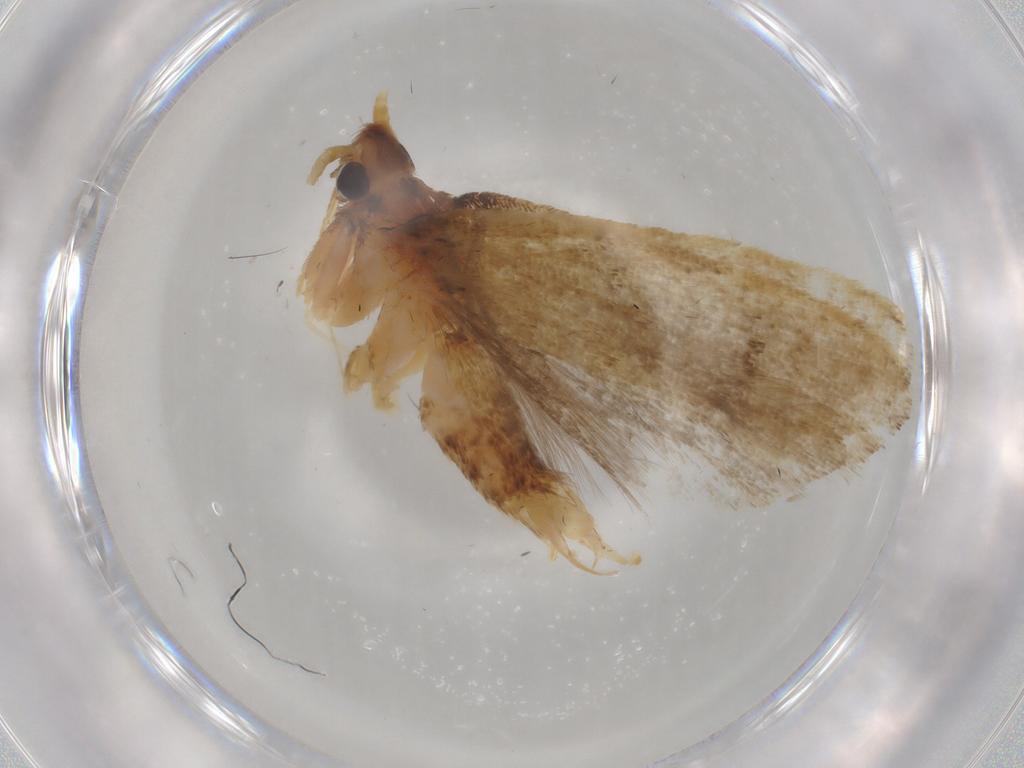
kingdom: Animalia
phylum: Arthropoda
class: Insecta
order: Lepidoptera
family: Lecithoceridae
